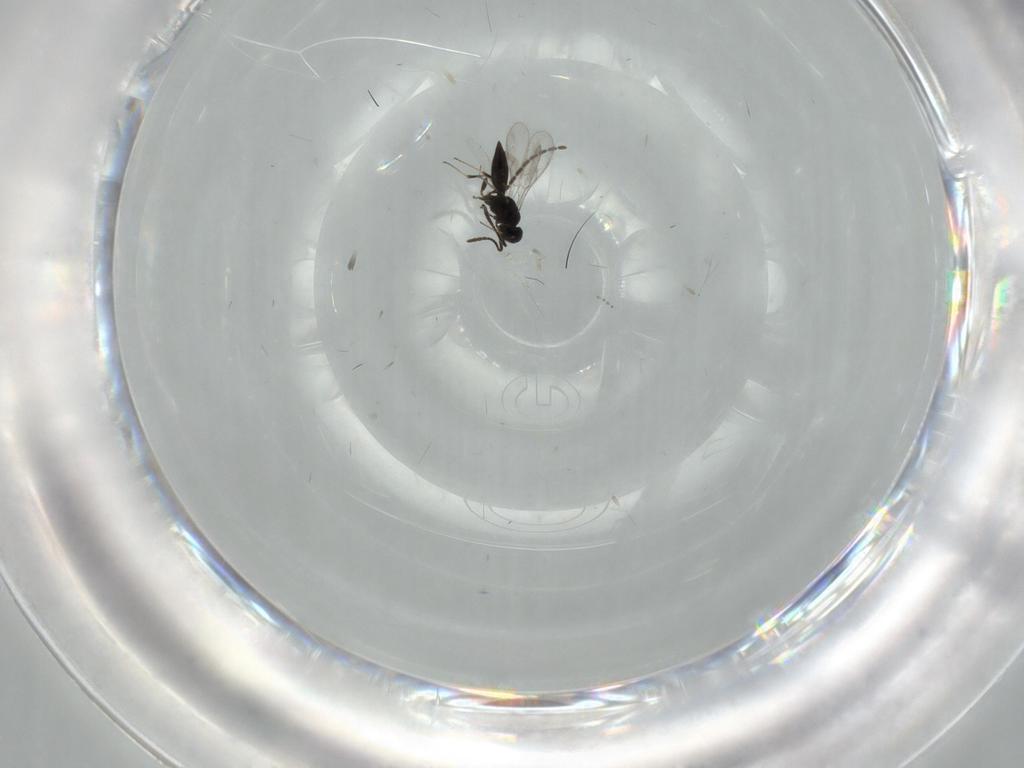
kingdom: Animalia
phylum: Arthropoda
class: Insecta
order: Hymenoptera
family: Scelionidae
